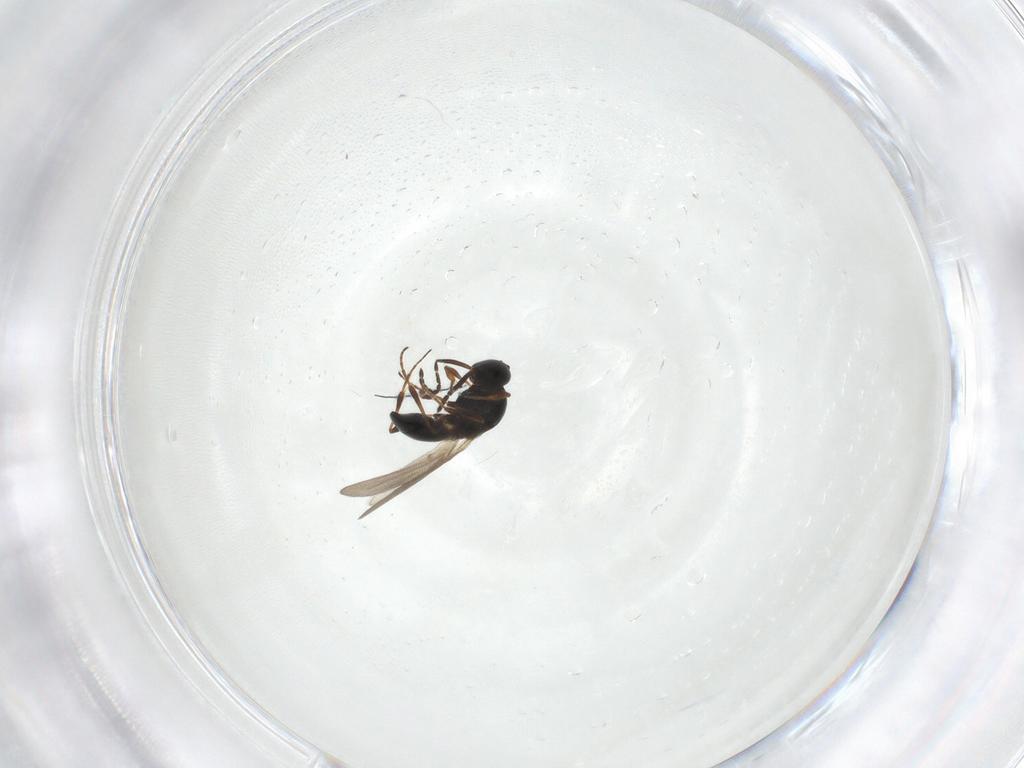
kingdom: Animalia
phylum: Arthropoda
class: Insecta
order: Hymenoptera
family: Platygastridae
